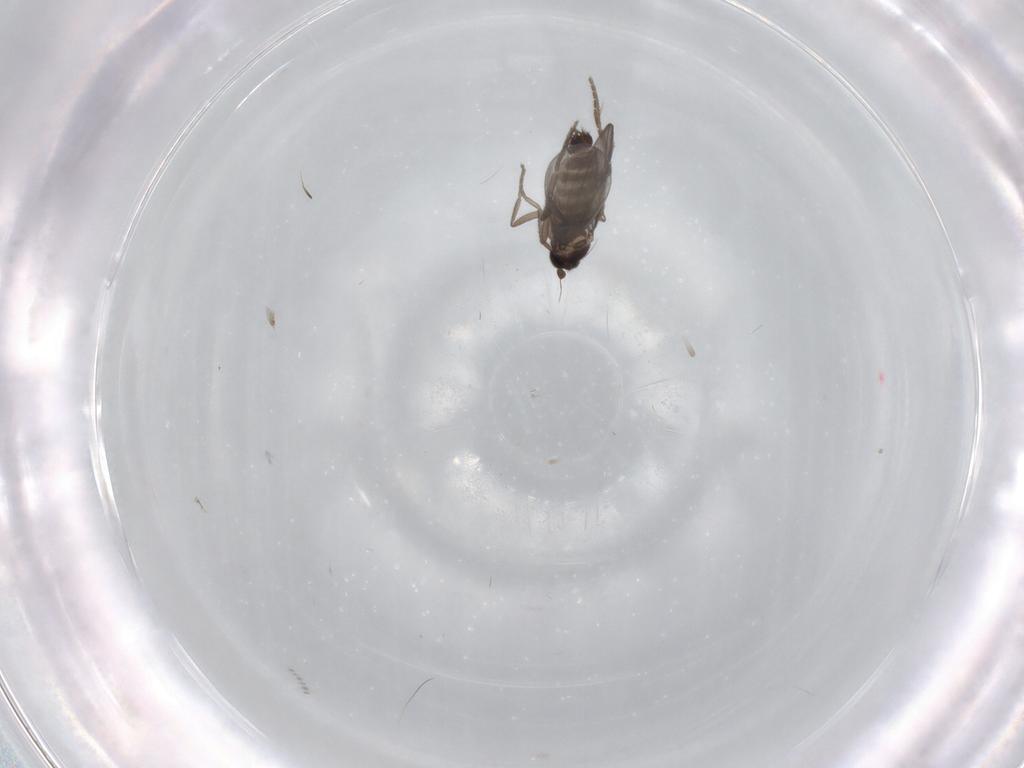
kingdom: Animalia
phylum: Arthropoda
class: Insecta
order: Diptera
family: Phoridae
